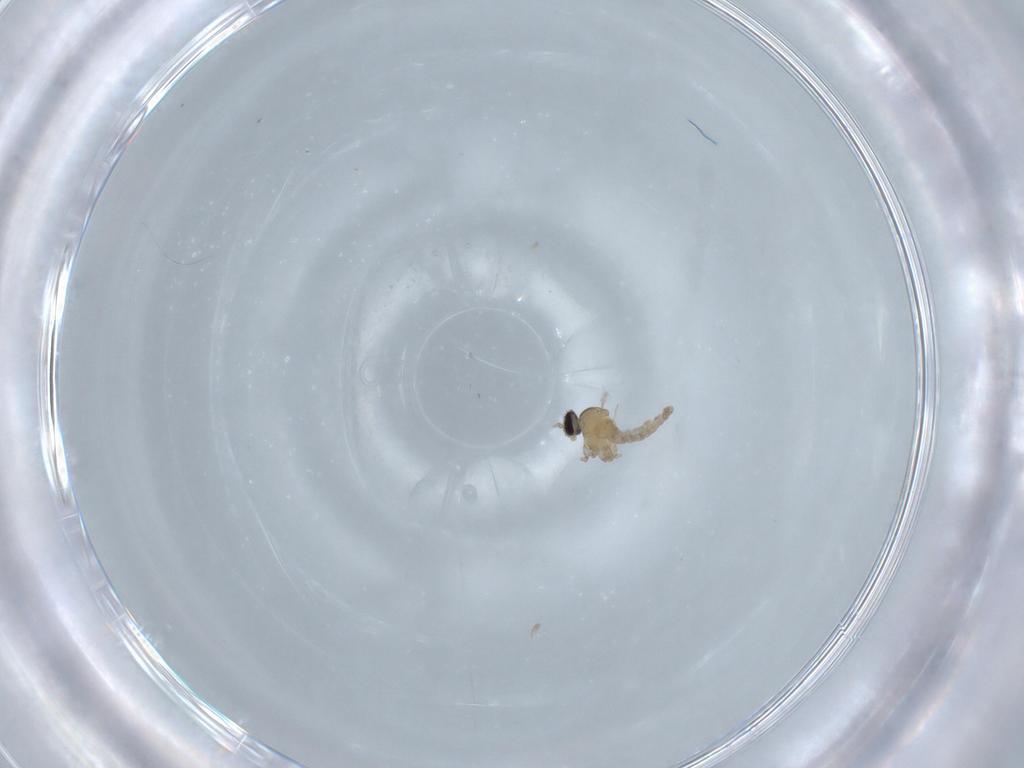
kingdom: Animalia
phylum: Arthropoda
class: Insecta
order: Diptera
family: Cecidomyiidae
